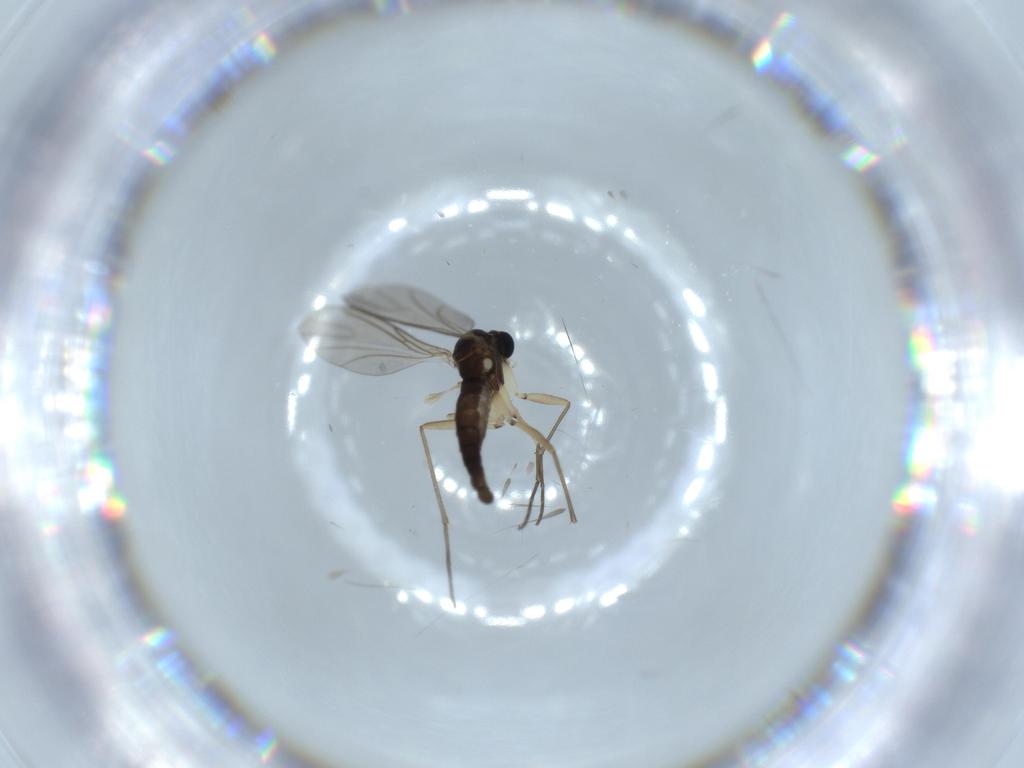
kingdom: Animalia
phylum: Arthropoda
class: Insecta
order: Diptera
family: Sciaridae
